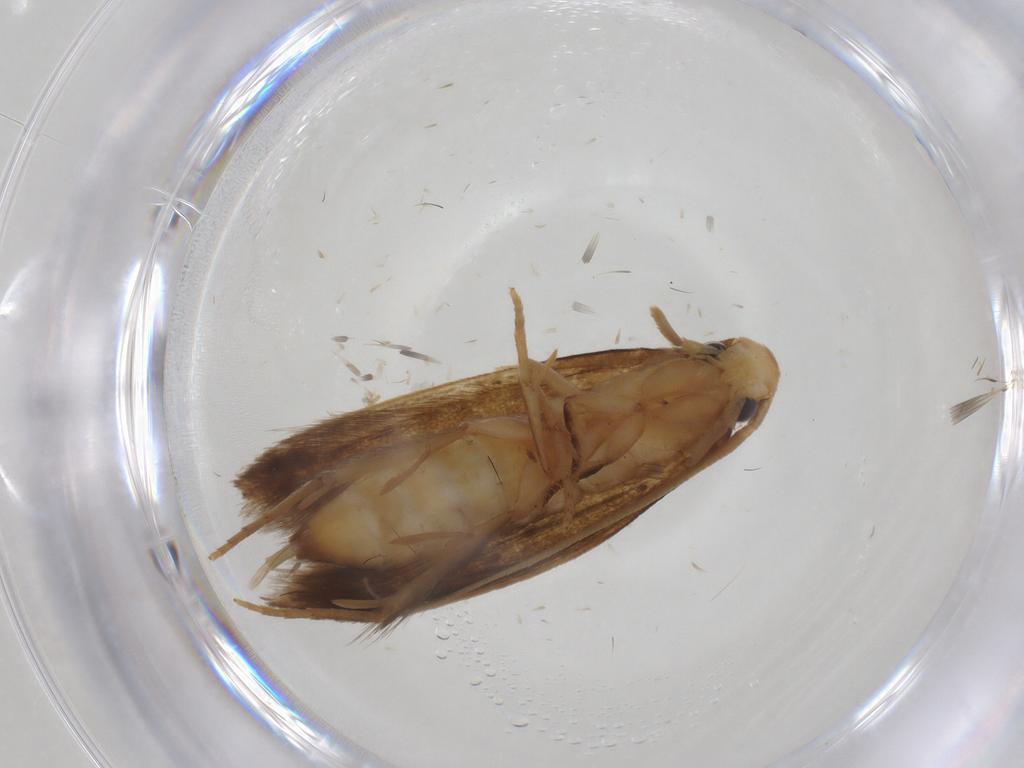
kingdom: Animalia
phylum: Arthropoda
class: Insecta
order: Lepidoptera
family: Tineidae
